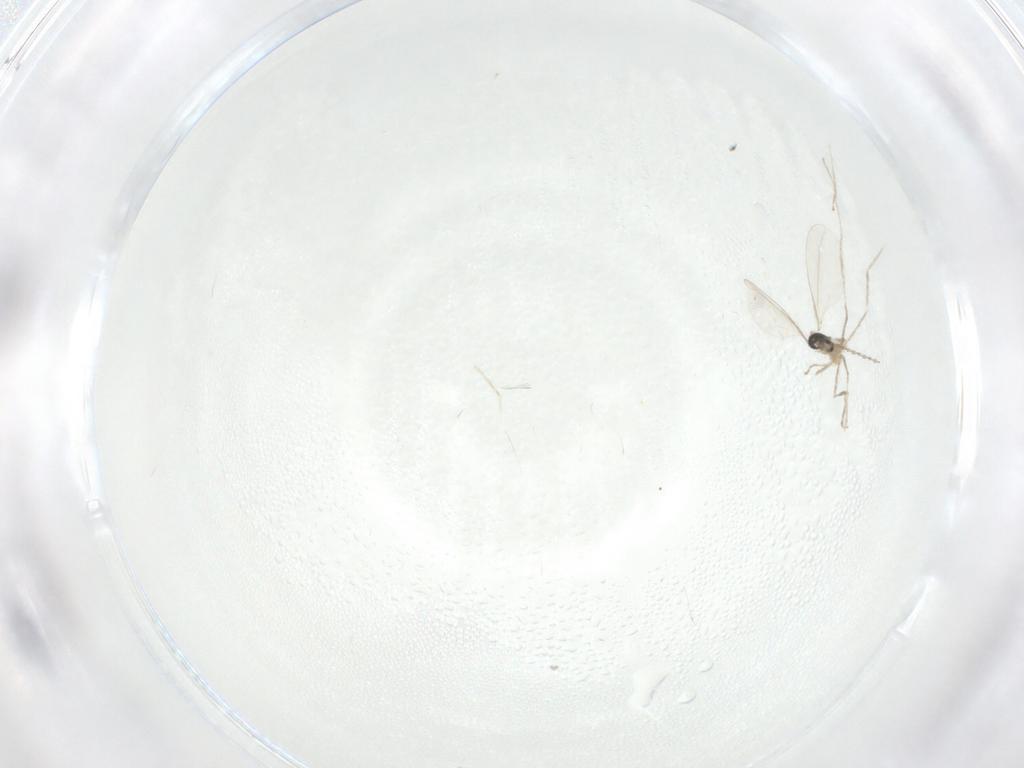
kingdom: Animalia
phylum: Arthropoda
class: Insecta
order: Diptera
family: Cecidomyiidae
